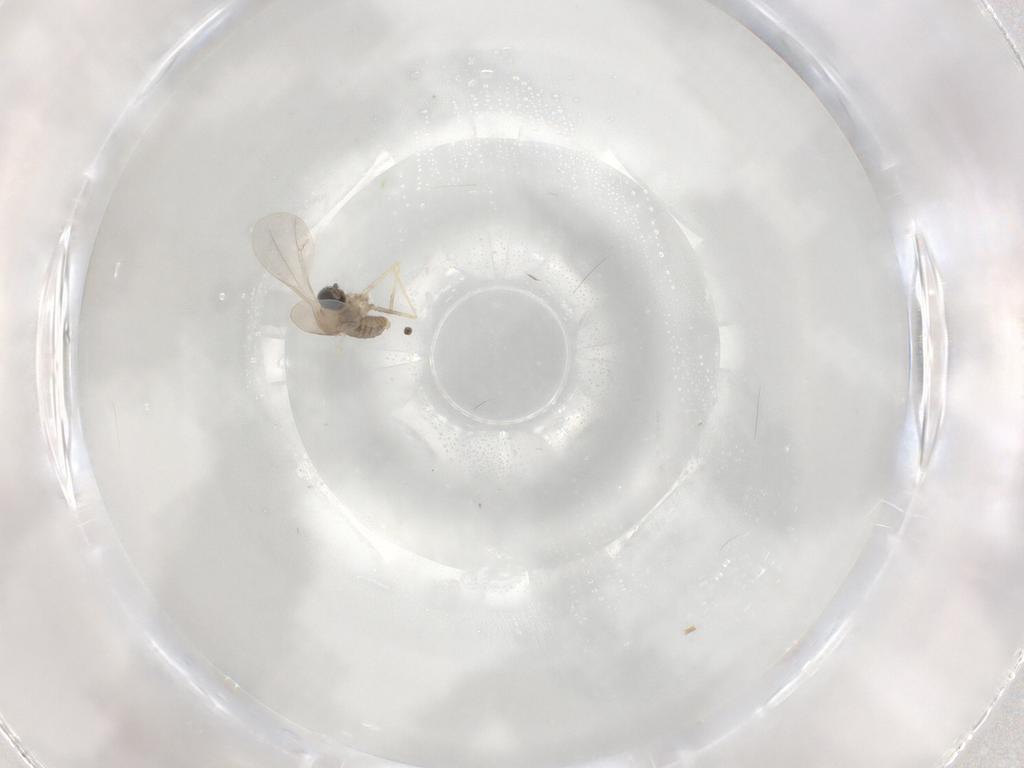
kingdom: Animalia
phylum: Arthropoda
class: Insecta
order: Diptera
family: Cecidomyiidae
